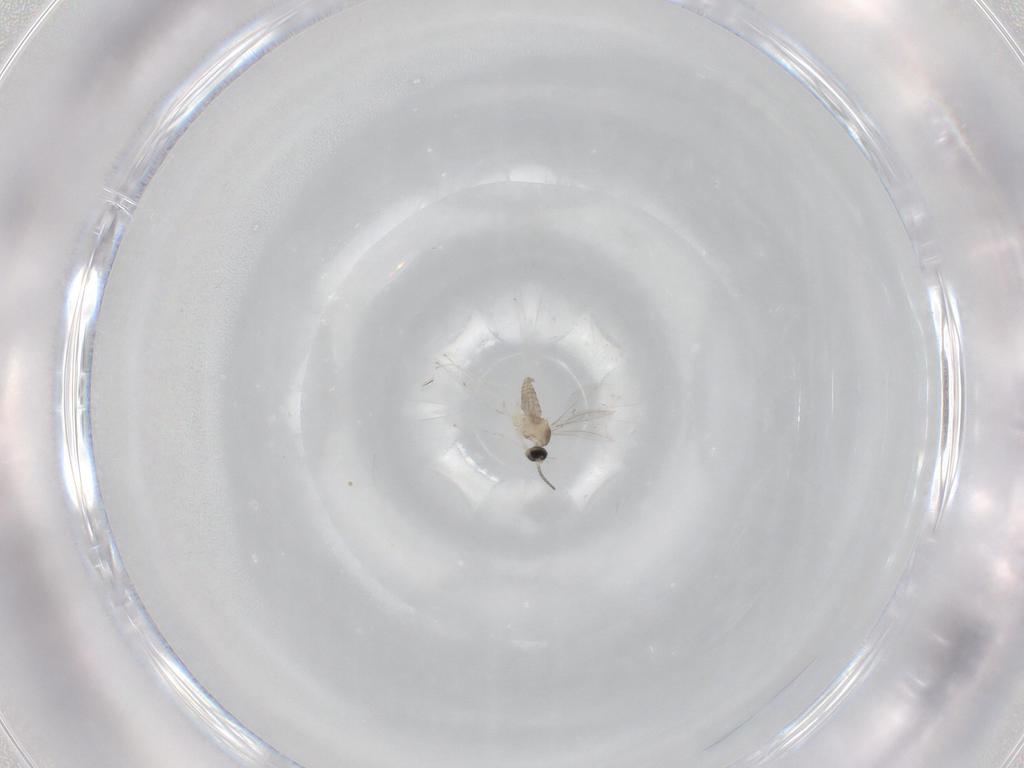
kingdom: Animalia
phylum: Arthropoda
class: Insecta
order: Diptera
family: Cecidomyiidae
